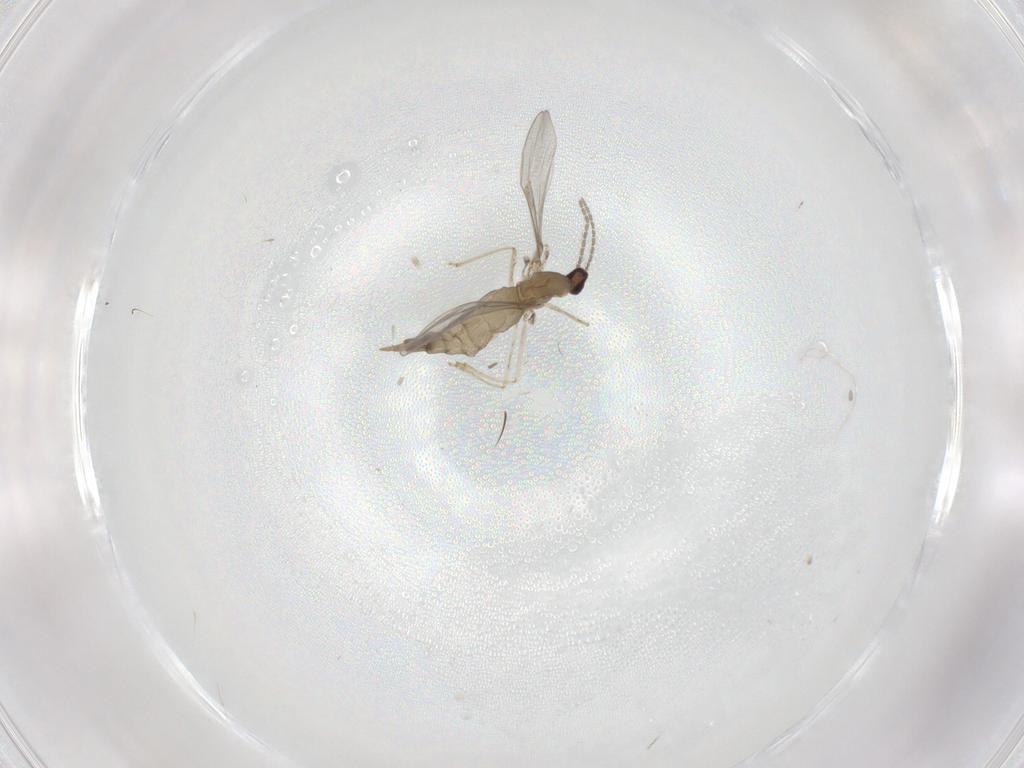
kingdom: Animalia
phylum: Arthropoda
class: Insecta
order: Diptera
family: Cecidomyiidae
